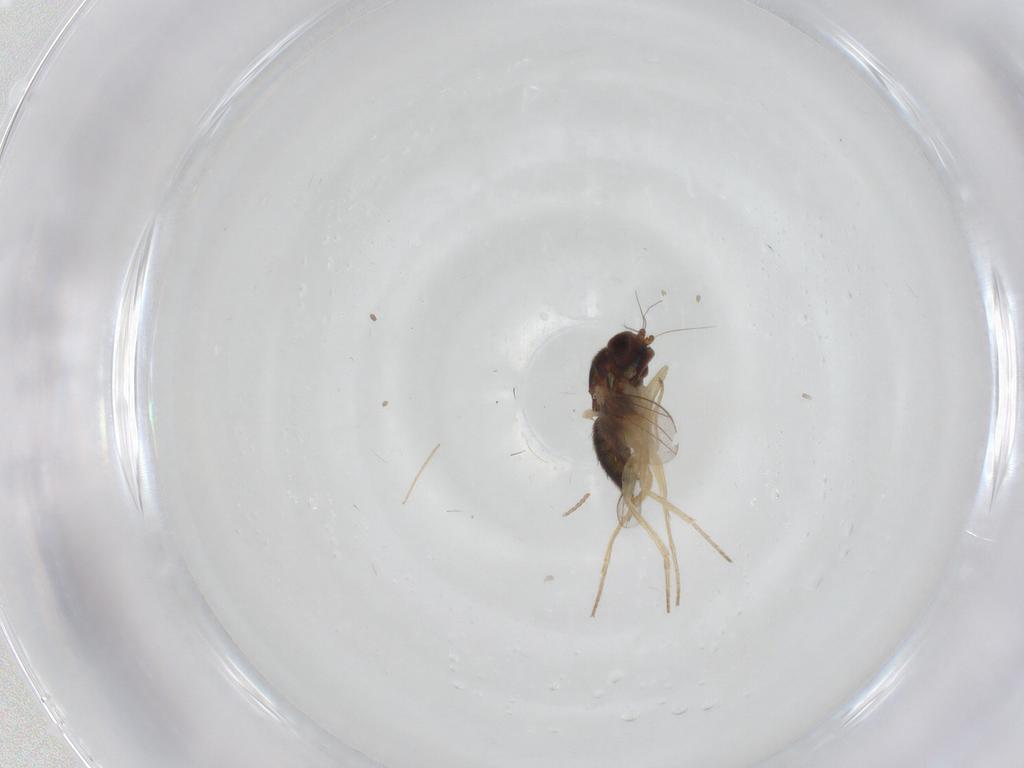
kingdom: Animalia
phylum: Arthropoda
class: Insecta
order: Diptera
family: Dolichopodidae
